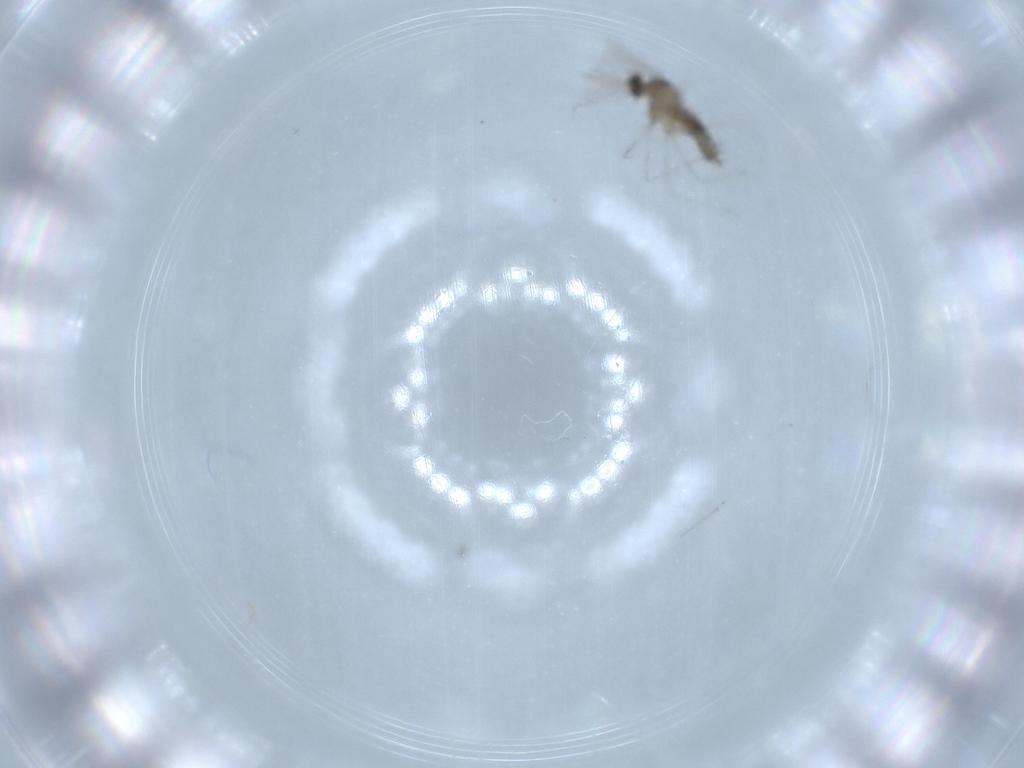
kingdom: Animalia
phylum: Arthropoda
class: Insecta
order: Diptera
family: Cecidomyiidae
